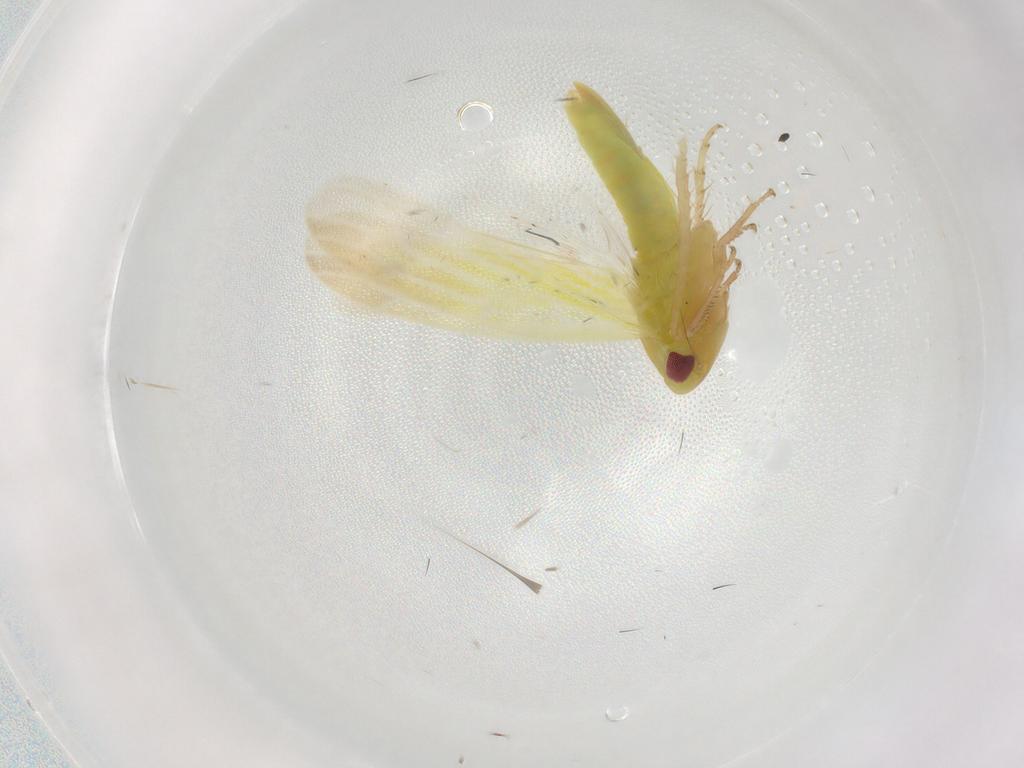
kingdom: Animalia
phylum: Arthropoda
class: Insecta
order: Hemiptera
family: Cicadellidae
